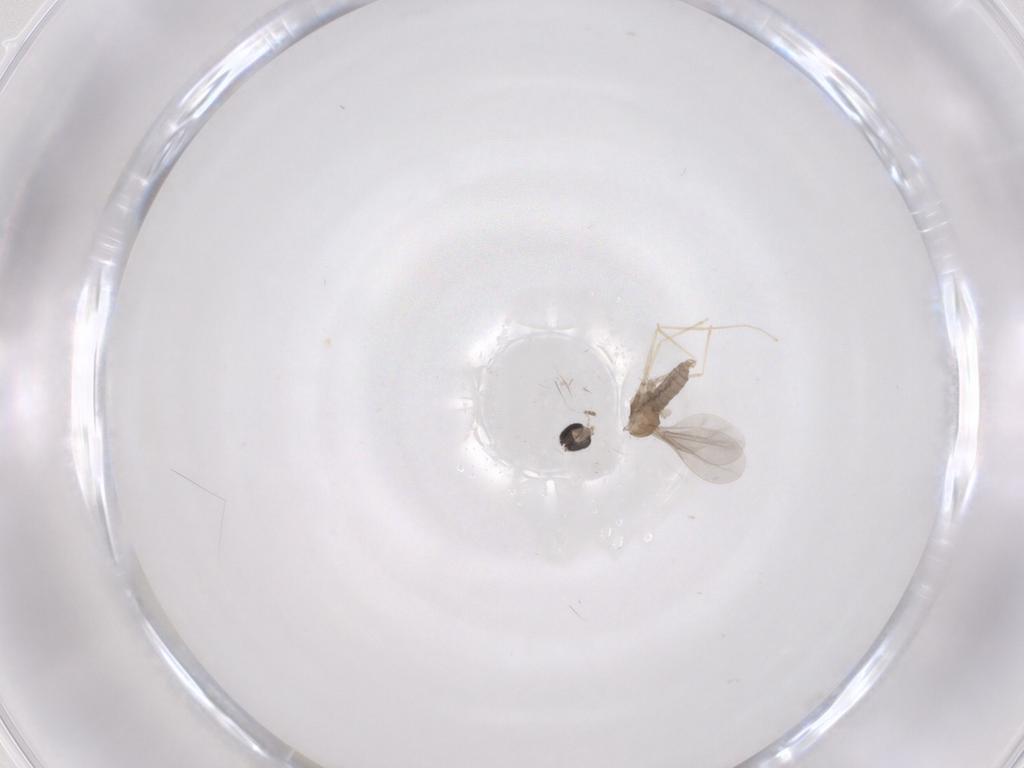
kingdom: Animalia
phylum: Arthropoda
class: Insecta
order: Diptera
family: Cecidomyiidae
